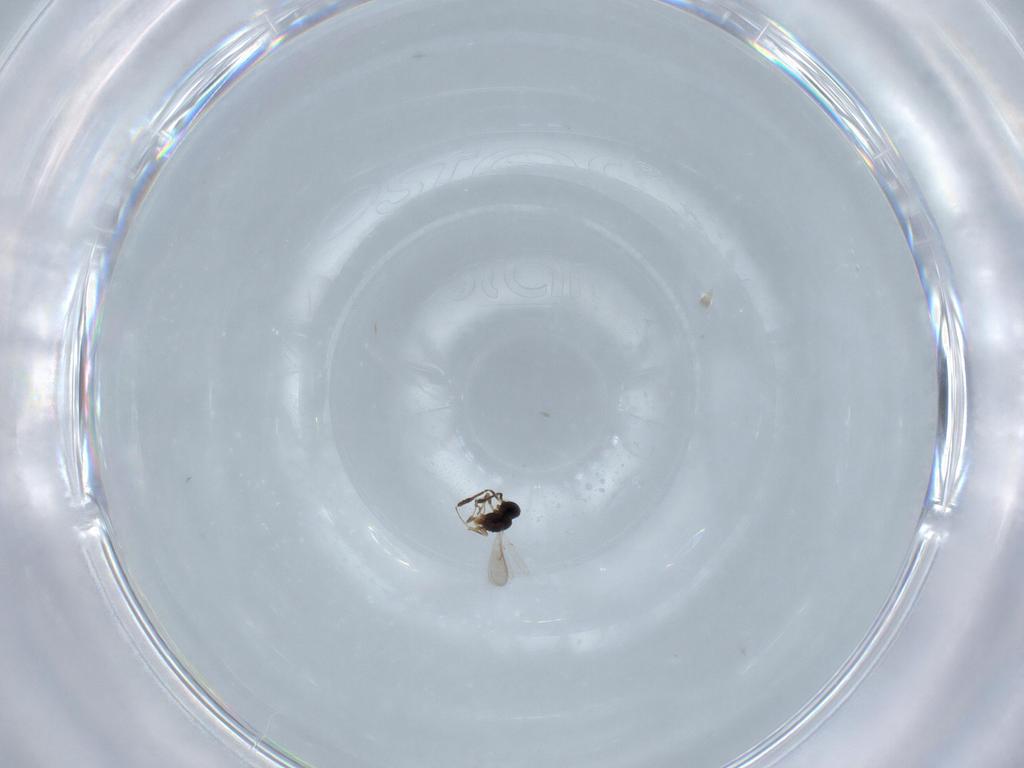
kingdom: Animalia
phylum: Arthropoda
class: Insecta
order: Hymenoptera
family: Scelionidae
